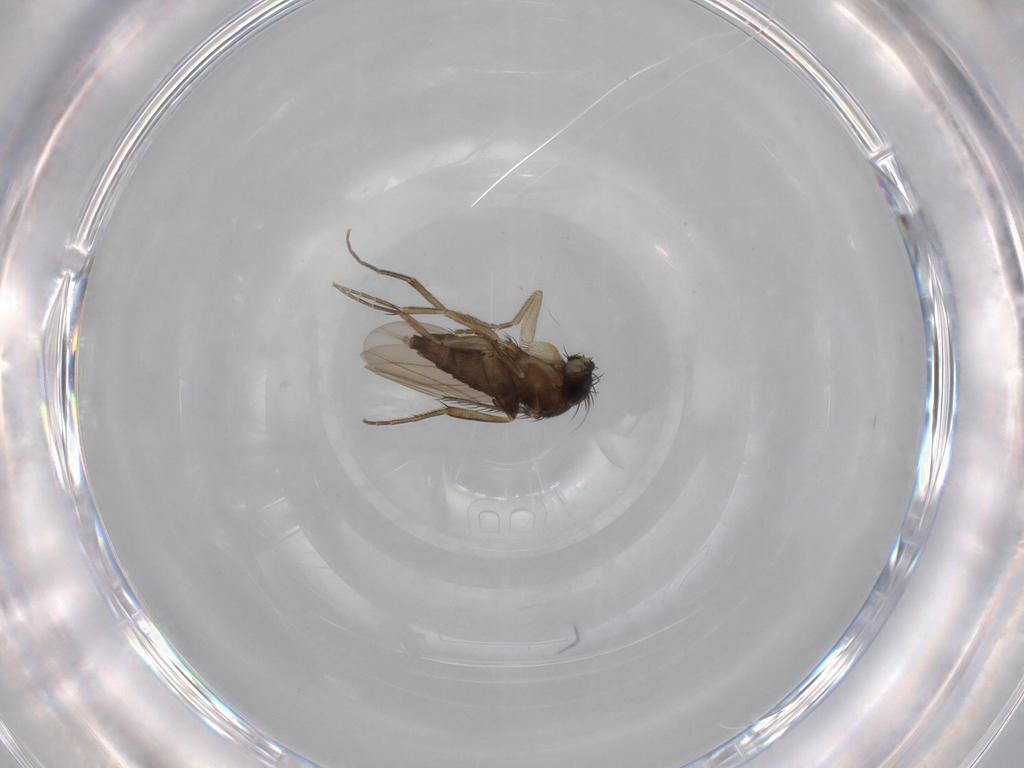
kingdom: Animalia
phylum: Arthropoda
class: Insecta
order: Diptera
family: Phoridae
